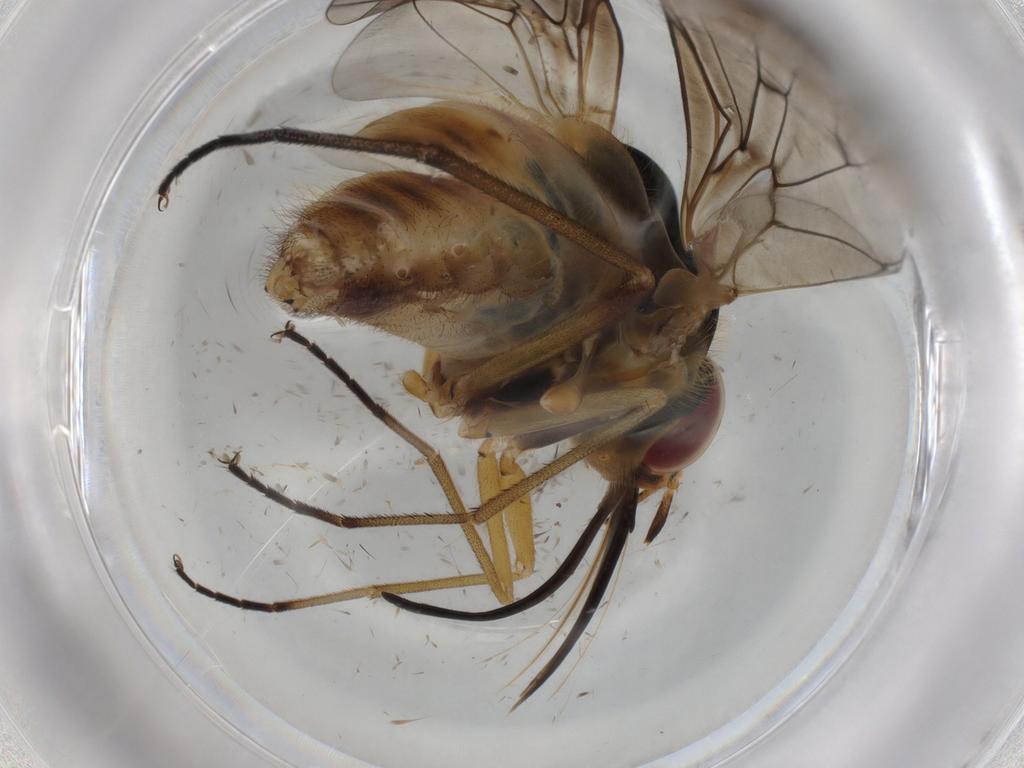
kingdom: Animalia
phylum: Arthropoda
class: Insecta
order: Diptera
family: Bombyliidae
